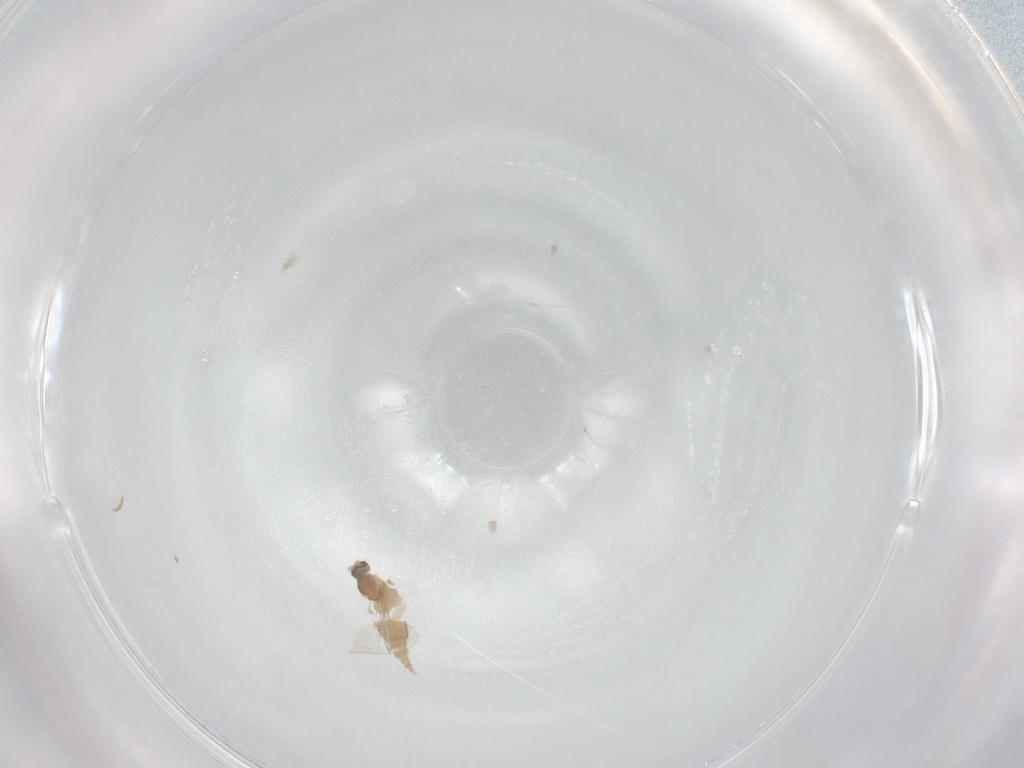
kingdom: Animalia
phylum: Arthropoda
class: Insecta
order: Diptera
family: Cecidomyiidae
